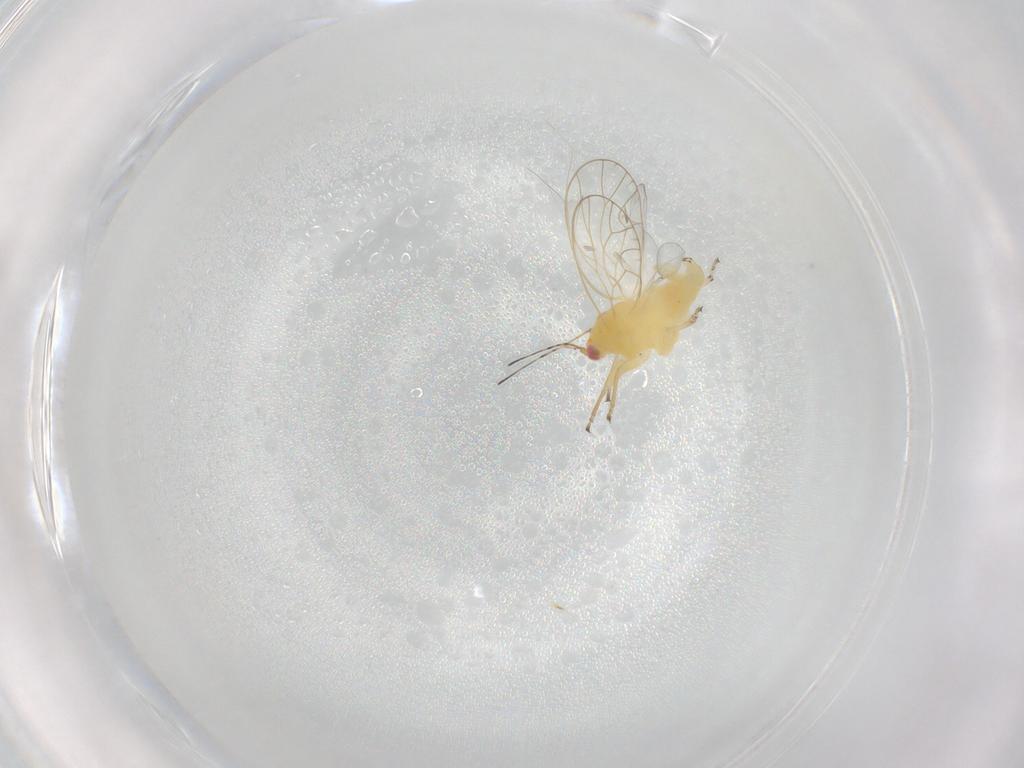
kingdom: Animalia
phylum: Arthropoda
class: Insecta
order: Hemiptera
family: Psyllidae
